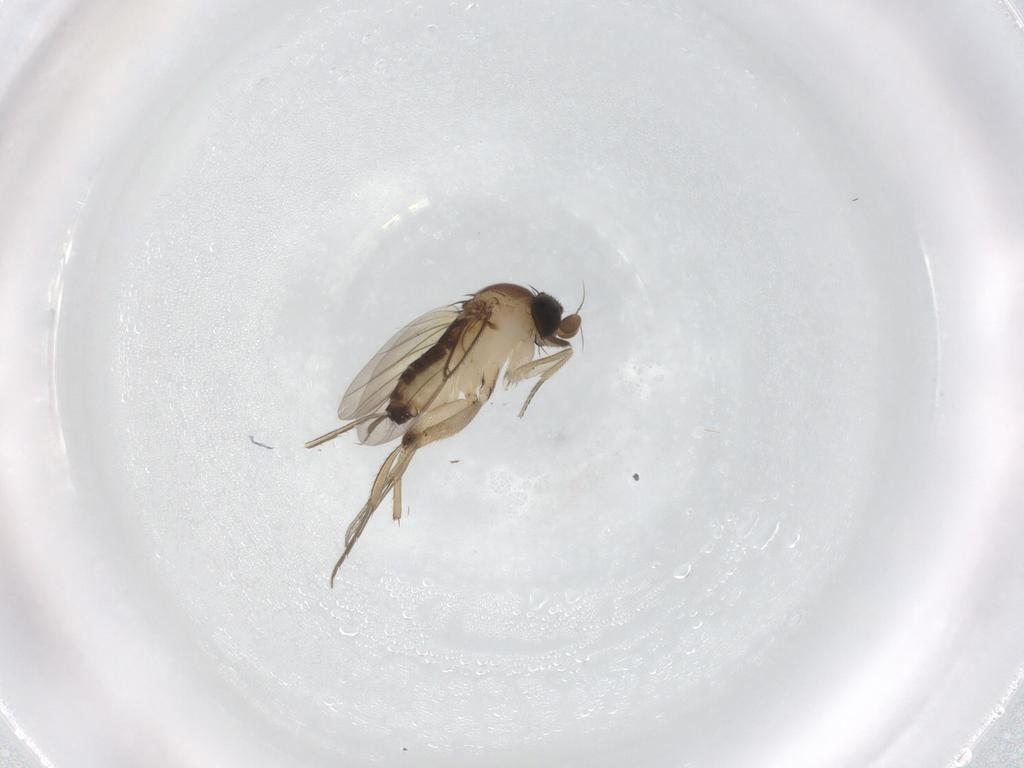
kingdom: Animalia
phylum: Arthropoda
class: Insecta
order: Diptera
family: Phoridae
